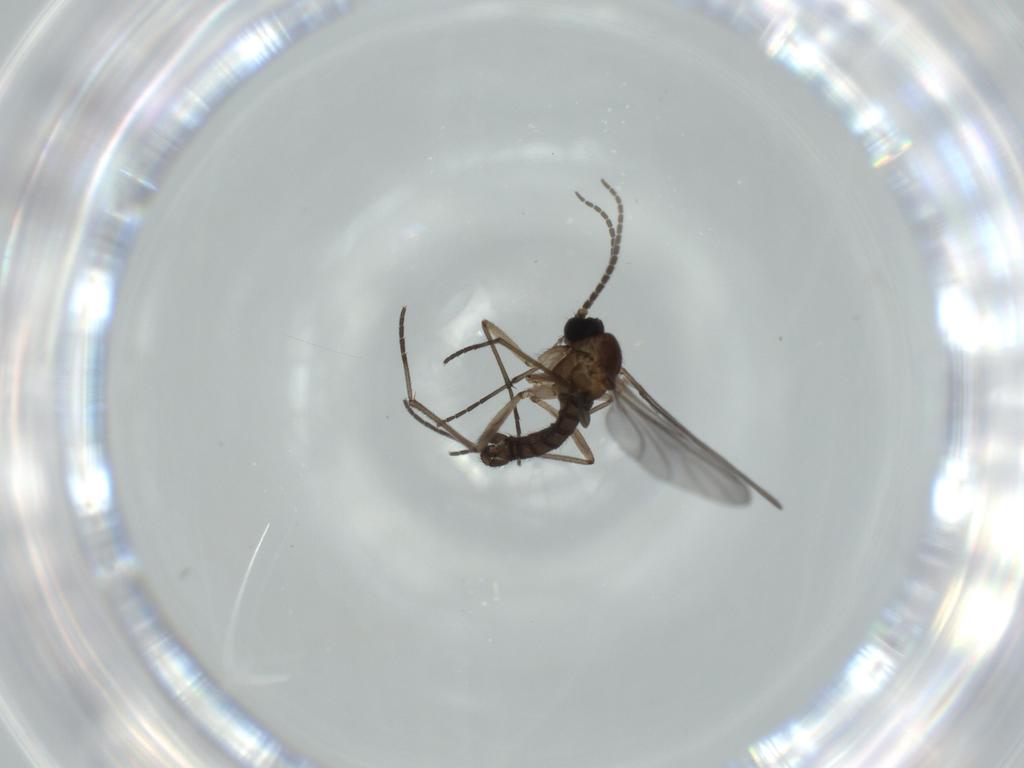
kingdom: Animalia
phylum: Arthropoda
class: Insecta
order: Diptera
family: Sciaridae
